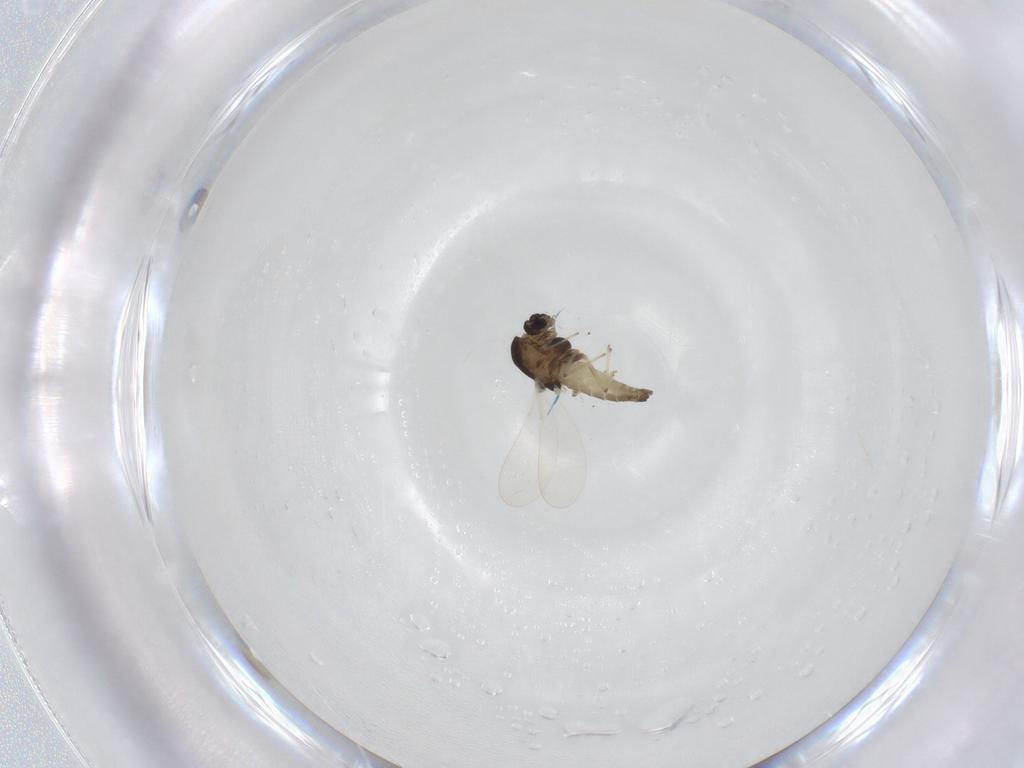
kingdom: Animalia
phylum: Arthropoda
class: Insecta
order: Diptera
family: Chironomidae
